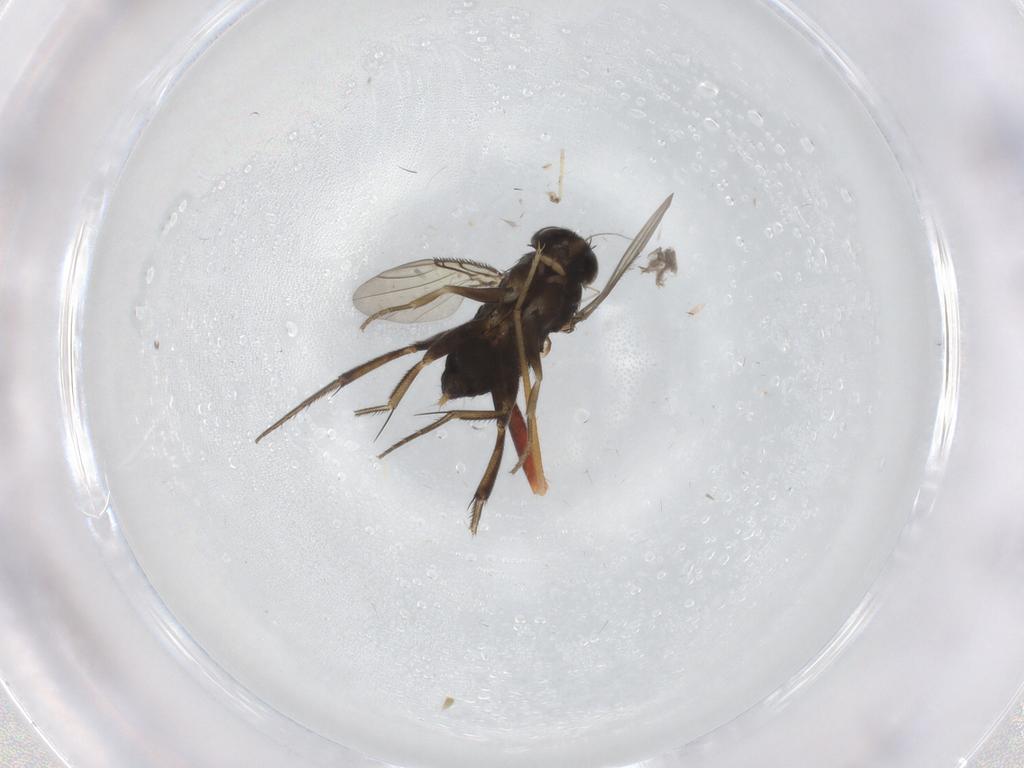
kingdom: Animalia
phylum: Arthropoda
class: Insecta
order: Diptera
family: Phoridae
